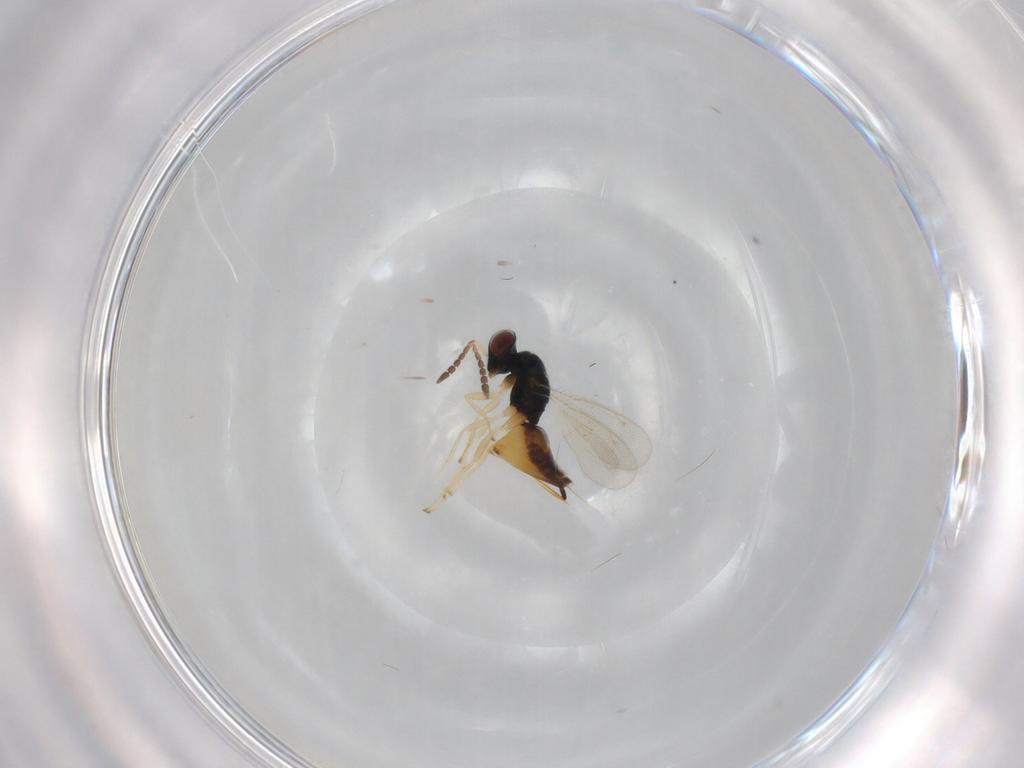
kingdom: Animalia
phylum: Arthropoda
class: Insecta
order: Hymenoptera
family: Eulophidae
